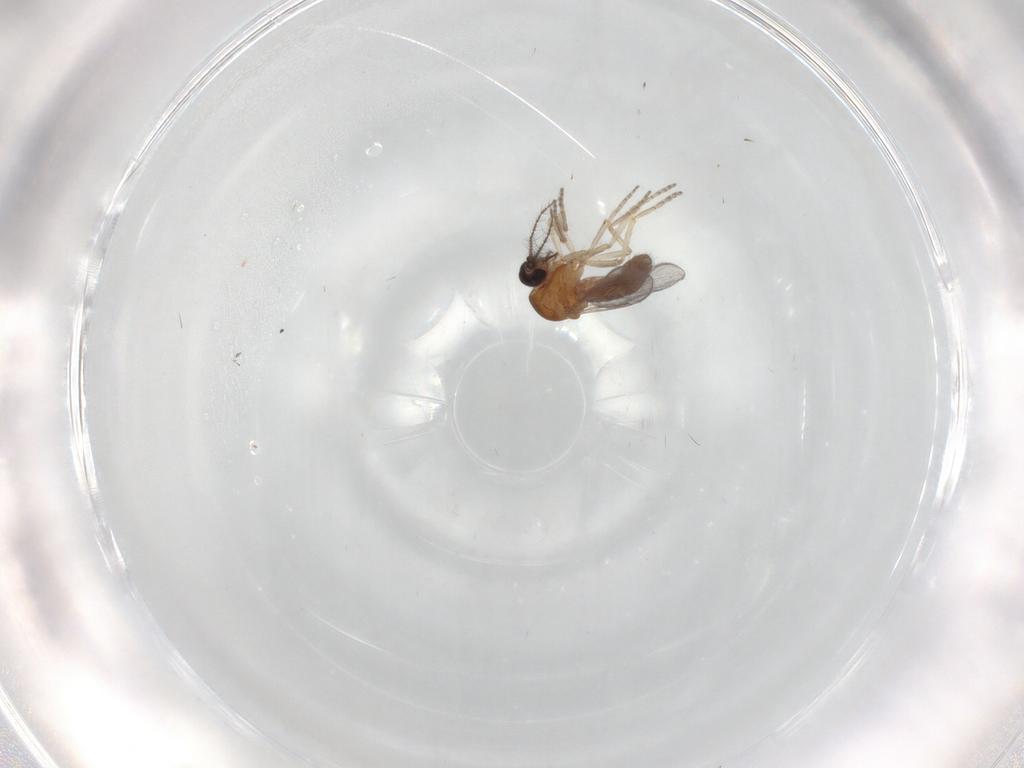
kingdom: Animalia
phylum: Arthropoda
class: Insecta
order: Diptera
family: Ceratopogonidae
